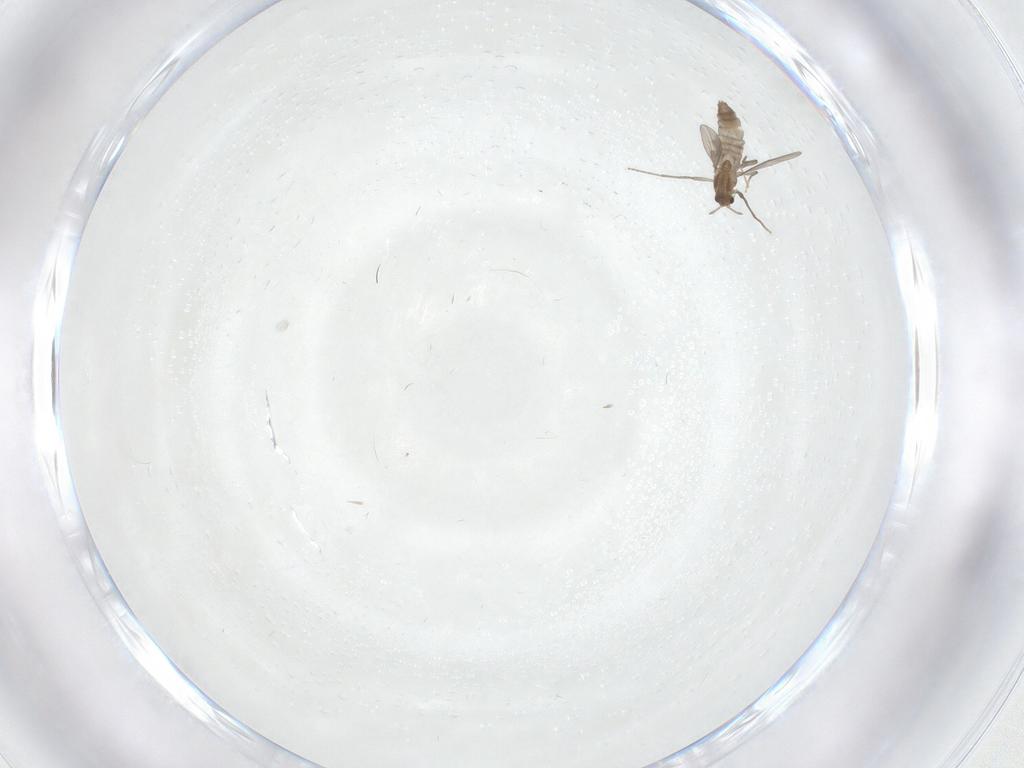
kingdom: Animalia
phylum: Arthropoda
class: Insecta
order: Diptera
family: Chironomidae
